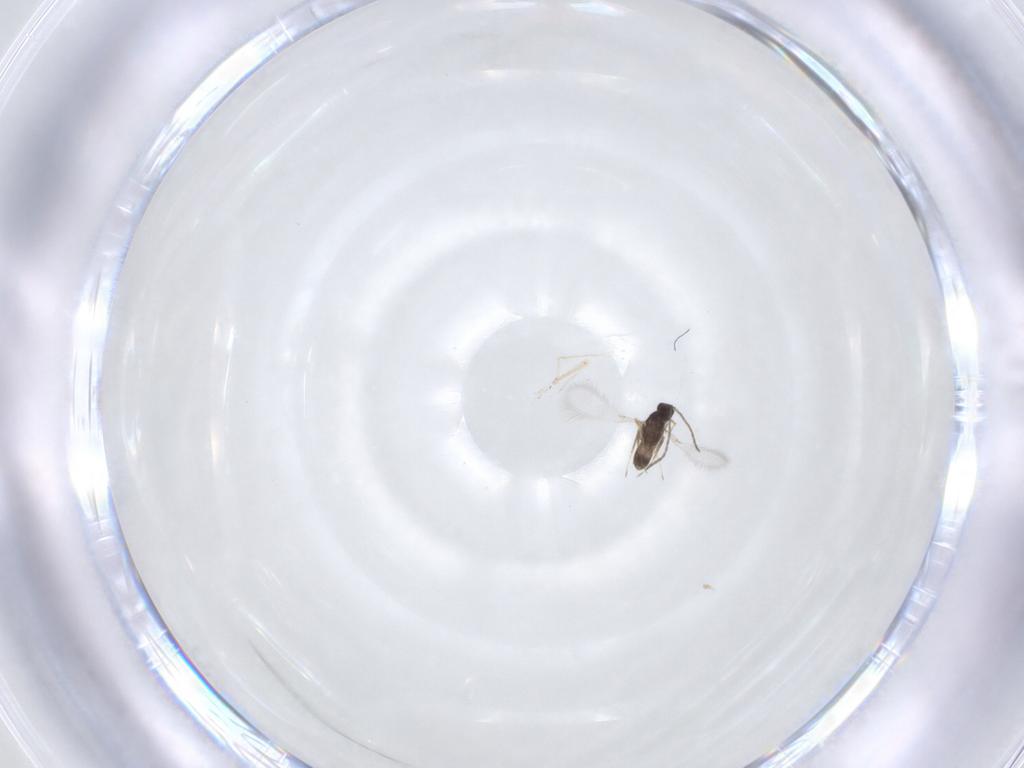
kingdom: Animalia
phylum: Arthropoda
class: Insecta
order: Hymenoptera
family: Mymaridae
